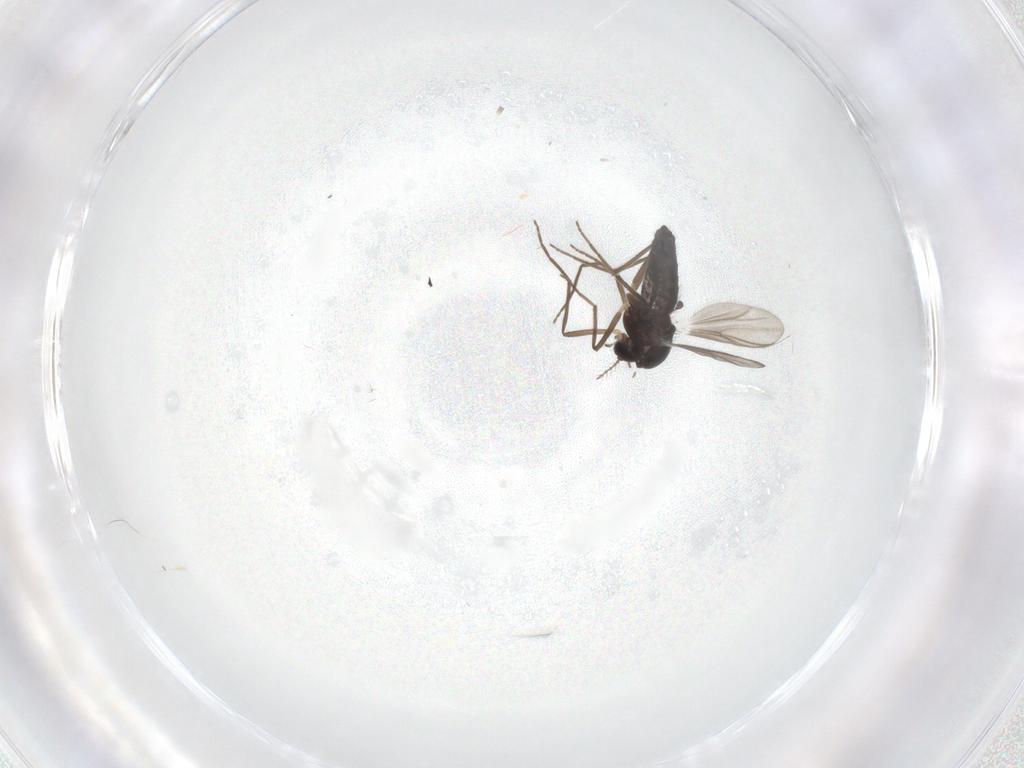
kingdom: Animalia
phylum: Arthropoda
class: Insecta
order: Diptera
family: Chironomidae
